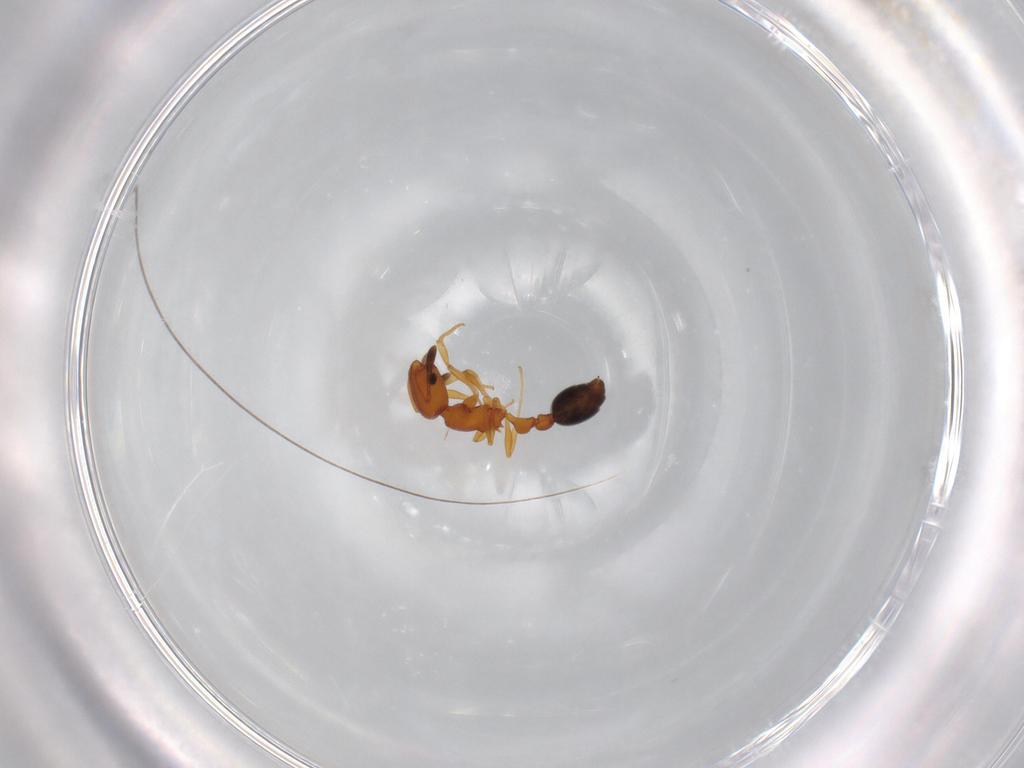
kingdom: Animalia
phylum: Arthropoda
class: Insecta
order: Hymenoptera
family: Formicidae
